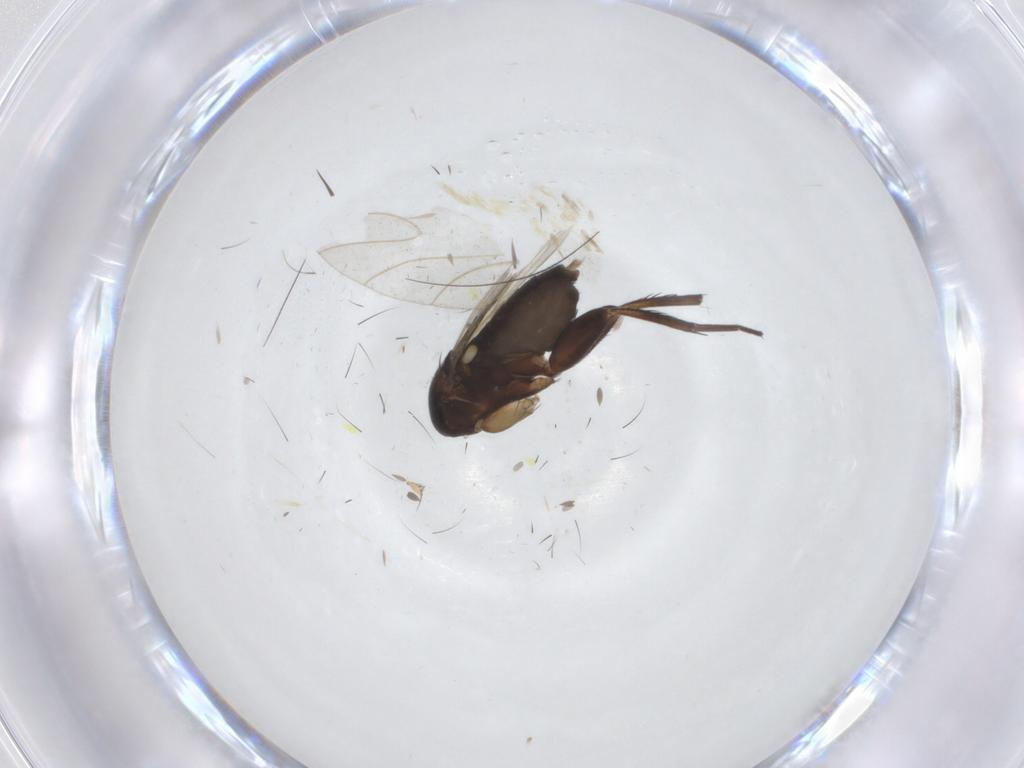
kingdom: Animalia
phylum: Arthropoda
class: Insecta
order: Diptera
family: Phoridae
